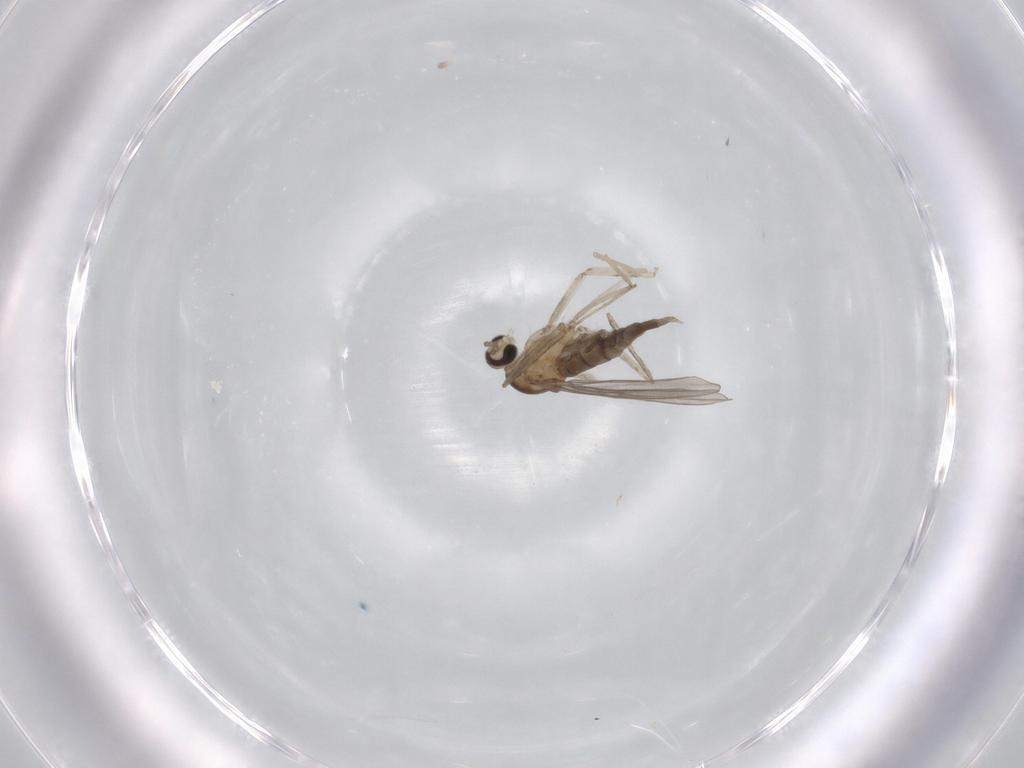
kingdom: Animalia
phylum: Arthropoda
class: Insecta
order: Diptera
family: Cecidomyiidae
